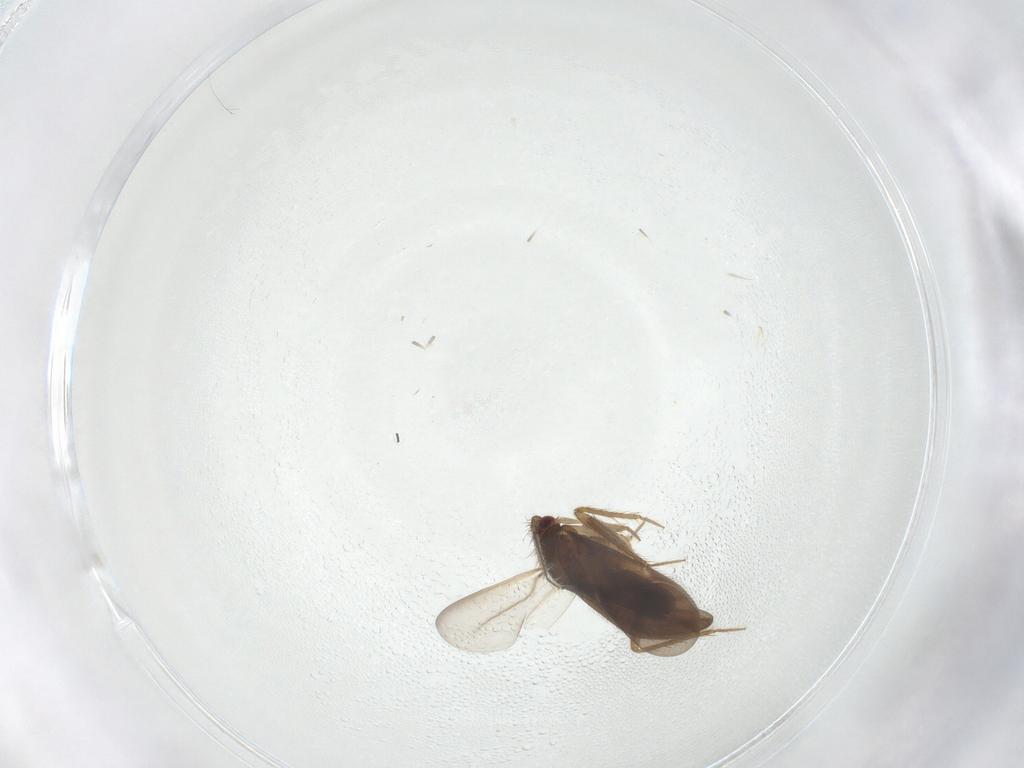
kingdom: Animalia
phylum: Arthropoda
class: Insecta
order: Hemiptera
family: Ceratocombidae
